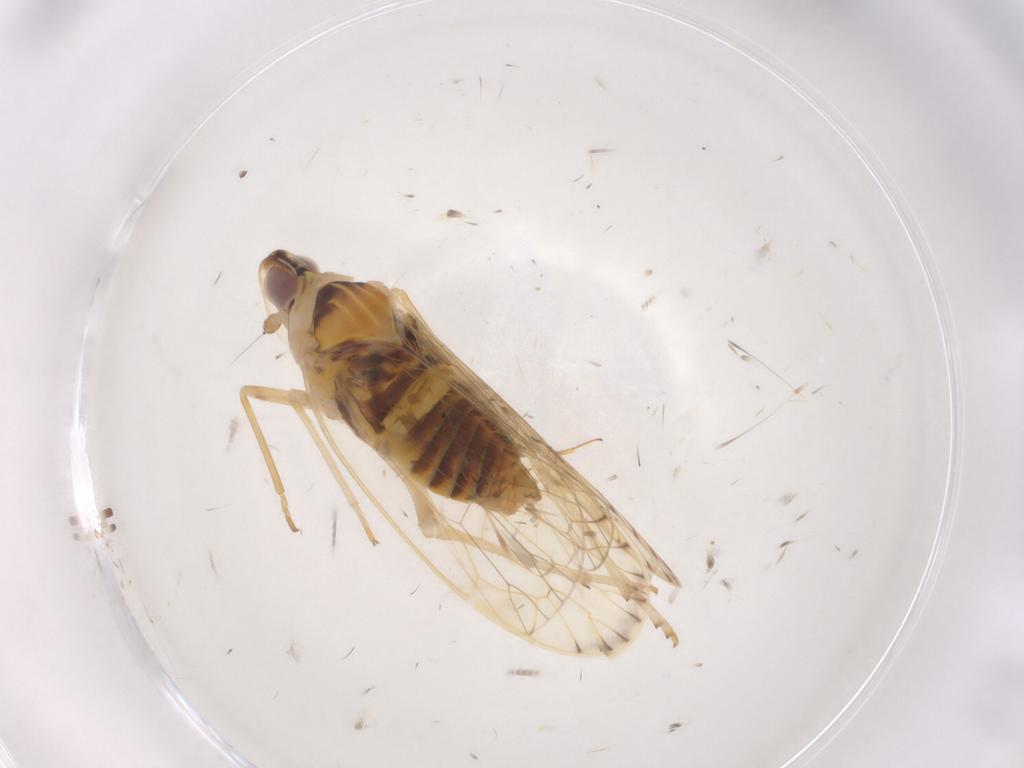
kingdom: Animalia
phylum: Arthropoda
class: Insecta
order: Hemiptera
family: Kinnaridae
